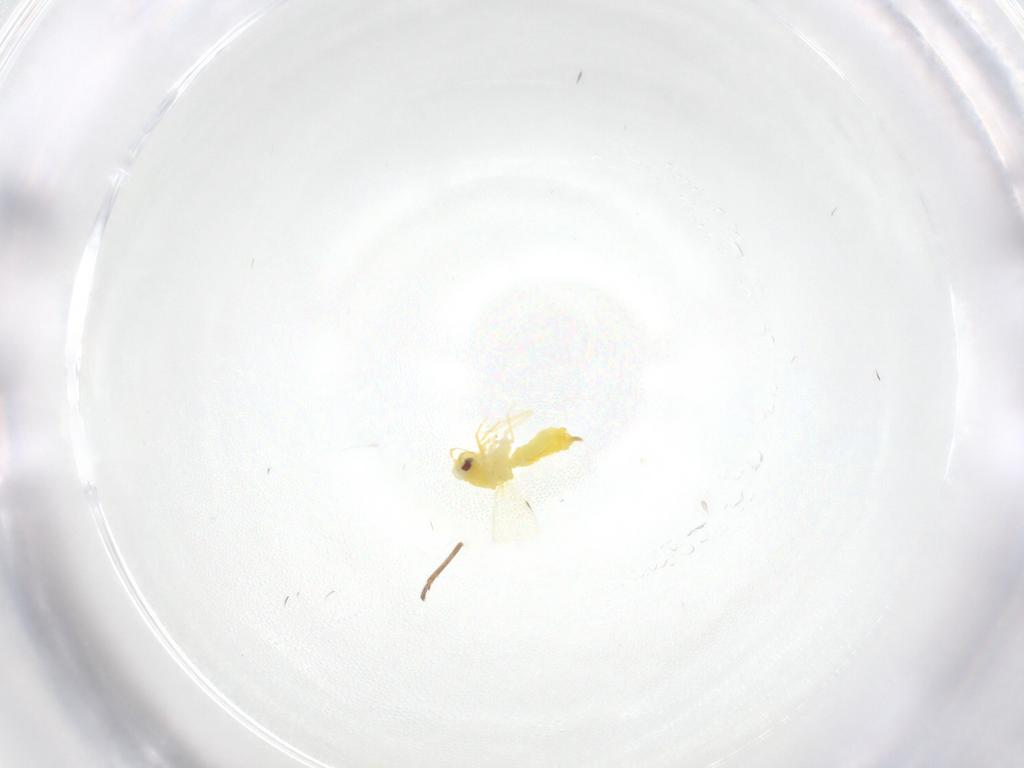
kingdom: Animalia
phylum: Arthropoda
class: Insecta
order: Hemiptera
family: Cicadellidae
